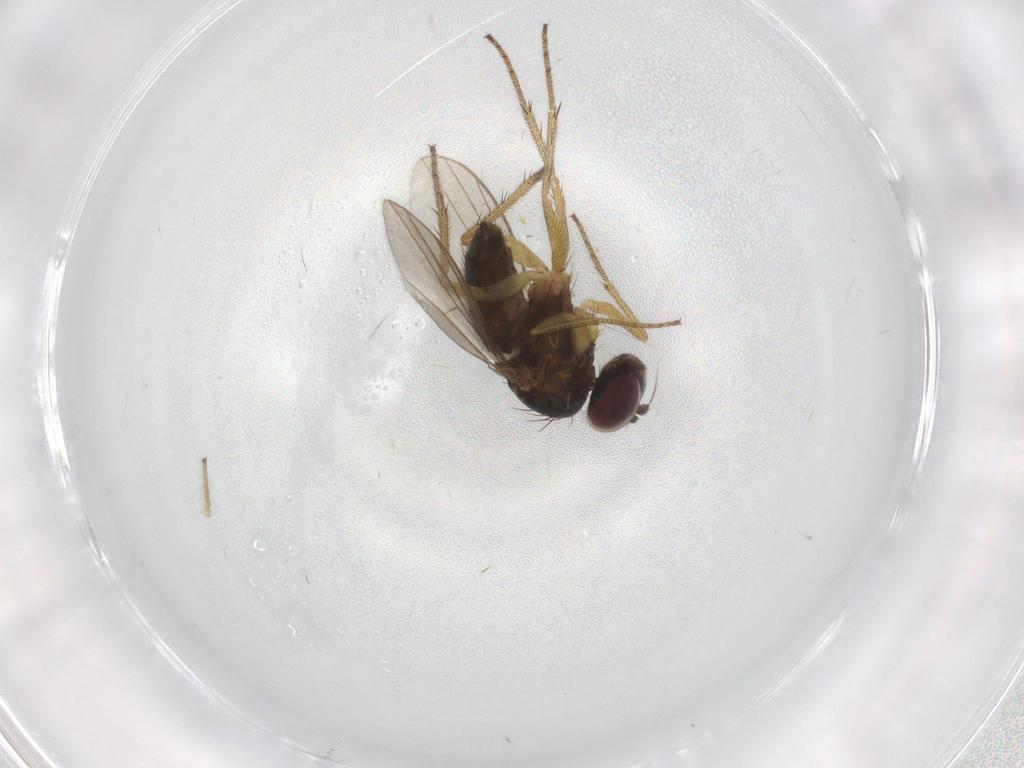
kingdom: Animalia
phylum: Arthropoda
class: Insecta
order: Diptera
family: Dolichopodidae
